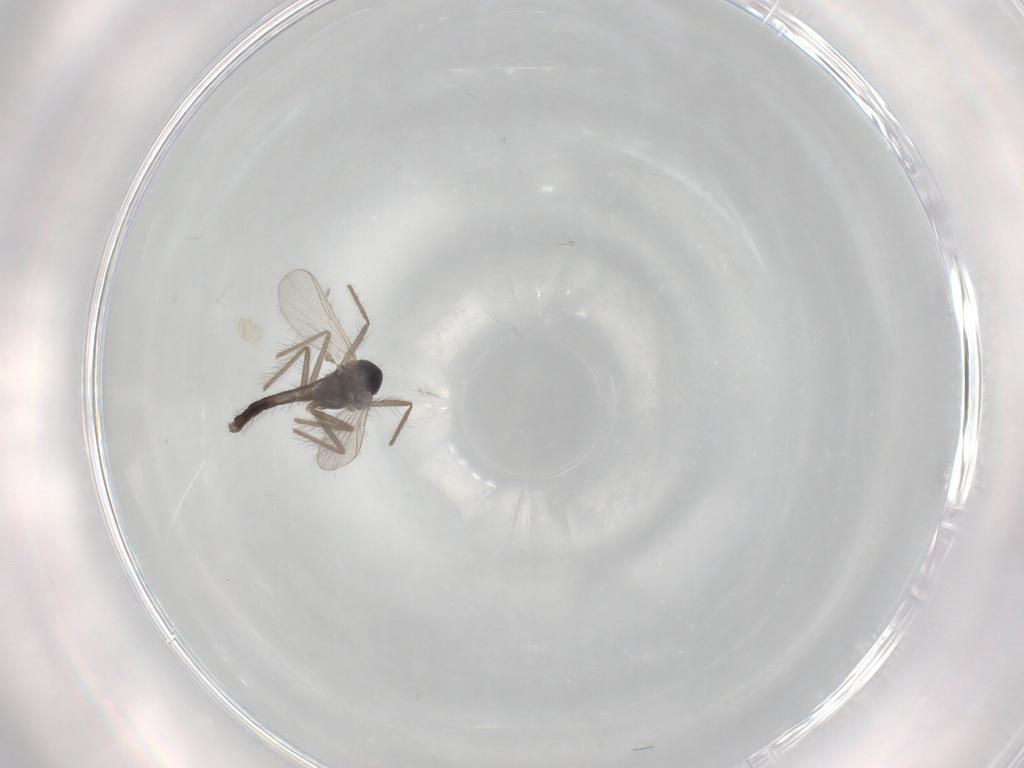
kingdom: Animalia
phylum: Arthropoda
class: Insecta
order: Diptera
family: Chironomidae
